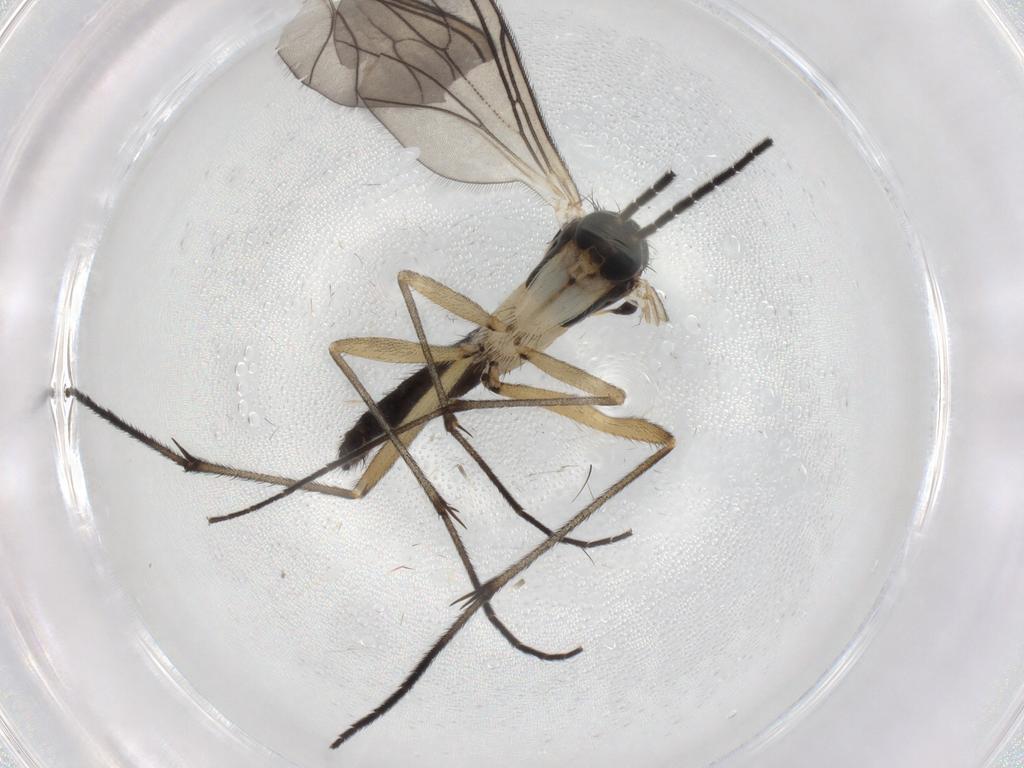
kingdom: Animalia
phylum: Arthropoda
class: Insecta
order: Diptera
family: Sciaridae
